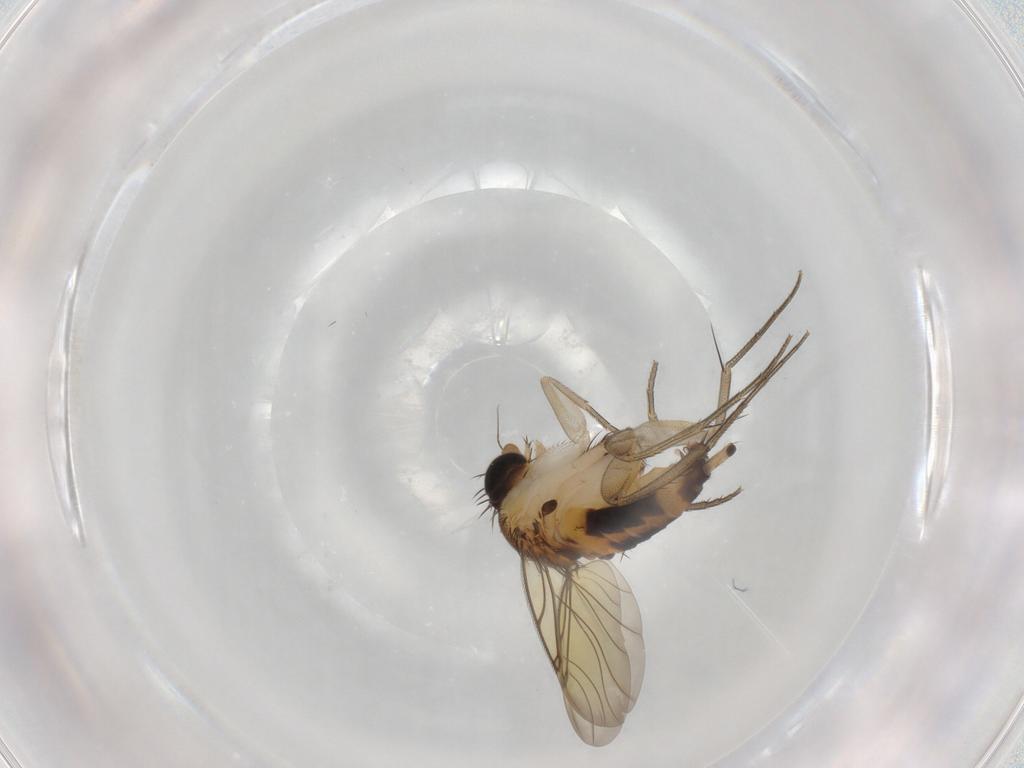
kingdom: Animalia
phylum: Arthropoda
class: Insecta
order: Diptera
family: Phoridae
